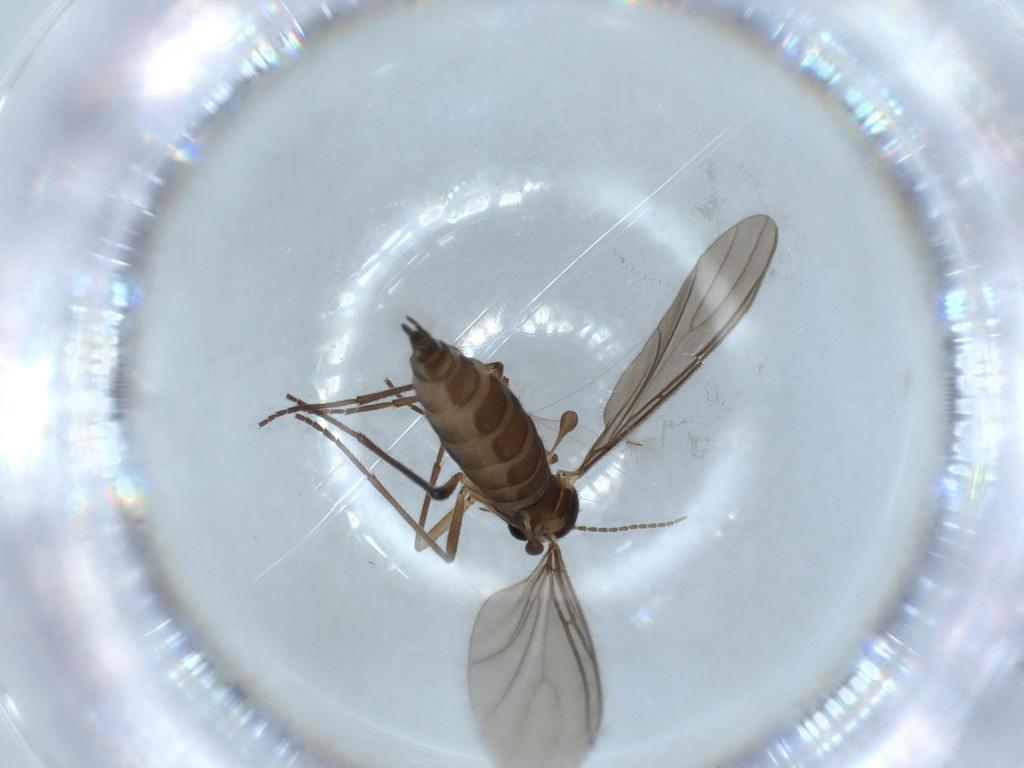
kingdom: Animalia
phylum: Arthropoda
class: Insecta
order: Diptera
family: Sciaridae
